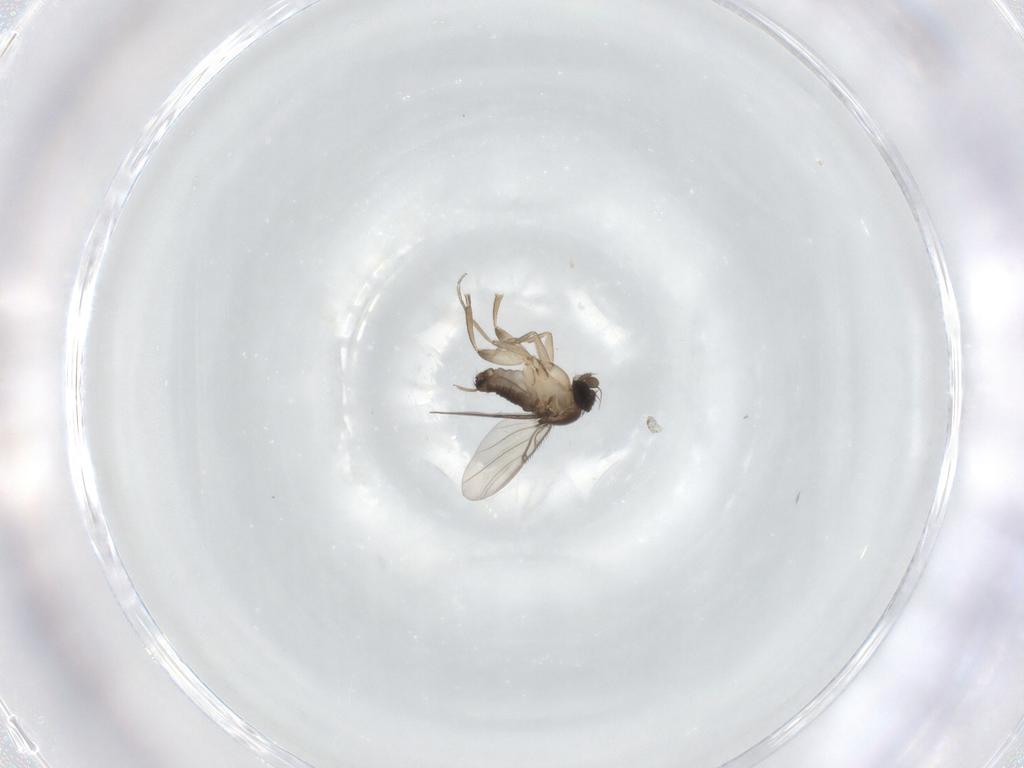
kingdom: Animalia
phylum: Arthropoda
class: Insecta
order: Diptera
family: Phoridae
